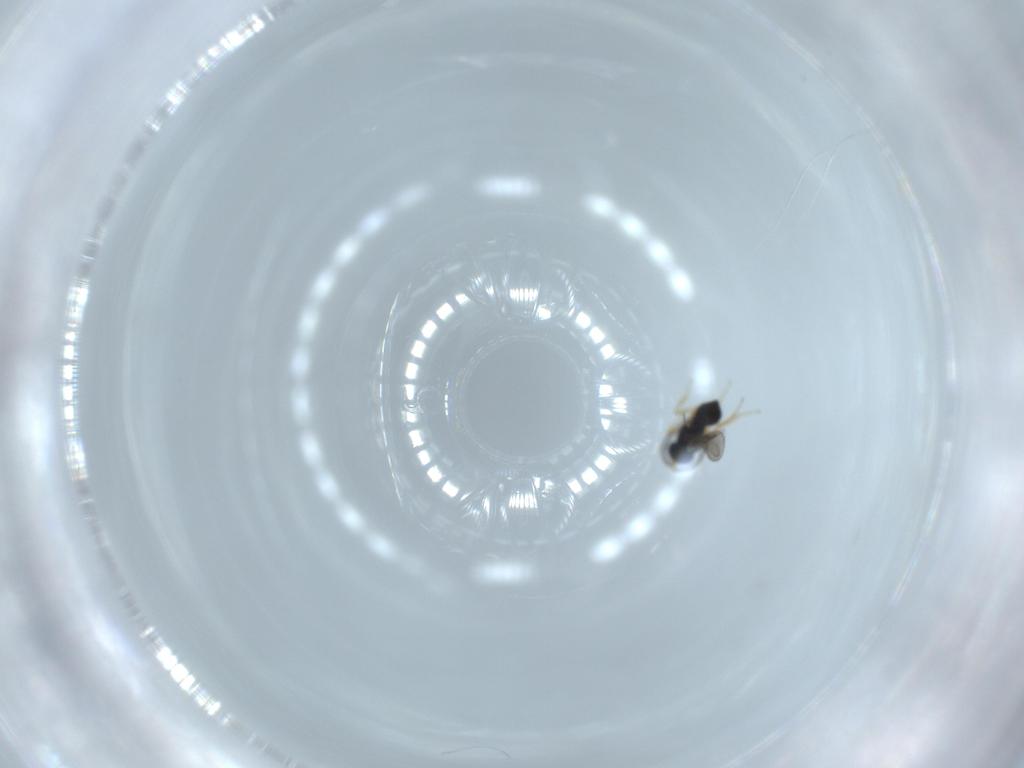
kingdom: Animalia
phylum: Arthropoda
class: Insecta
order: Hymenoptera
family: Scelionidae
